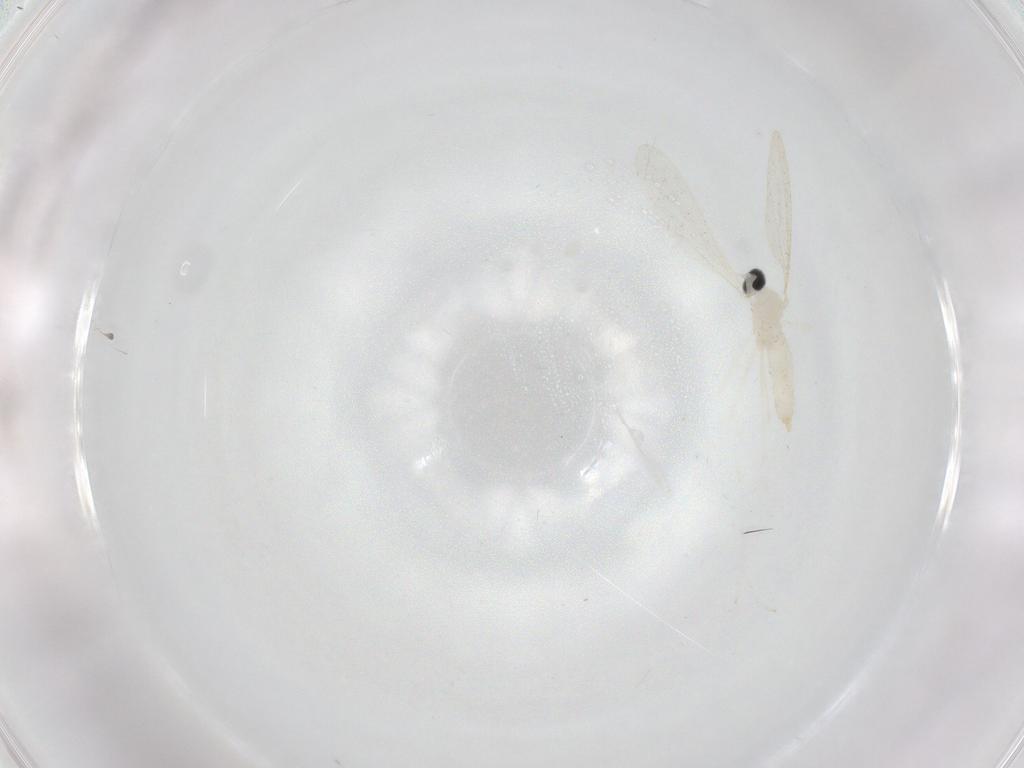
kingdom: Animalia
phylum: Arthropoda
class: Insecta
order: Diptera
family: Cecidomyiidae
